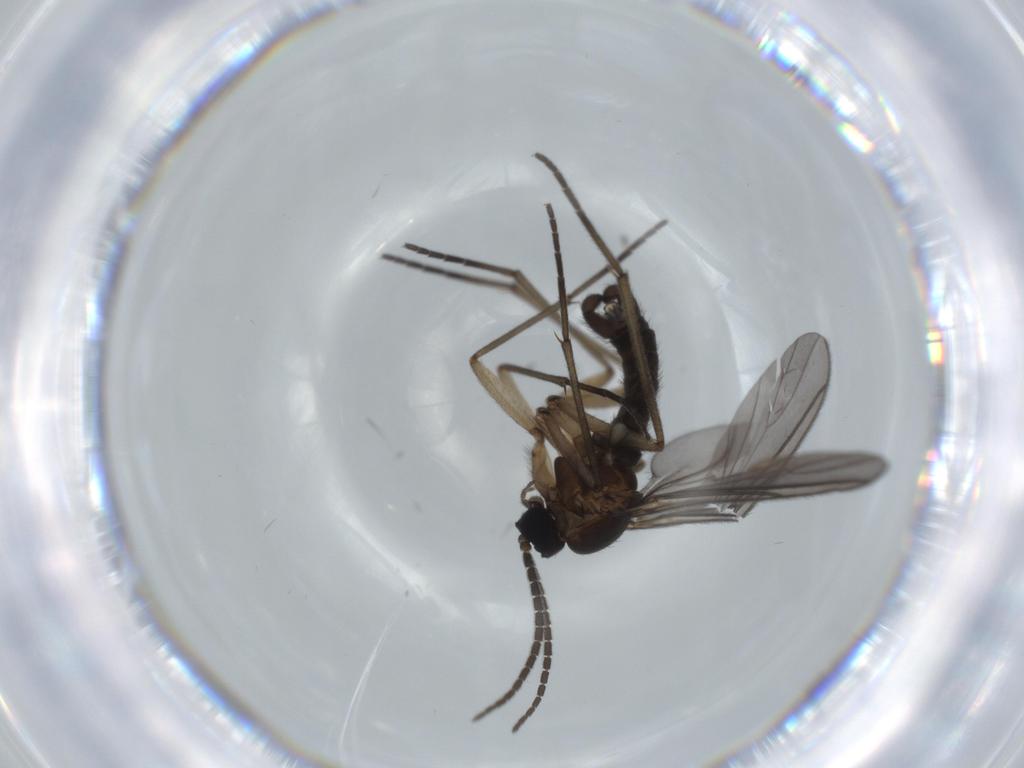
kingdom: Animalia
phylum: Arthropoda
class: Insecta
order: Diptera
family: Sciaridae
